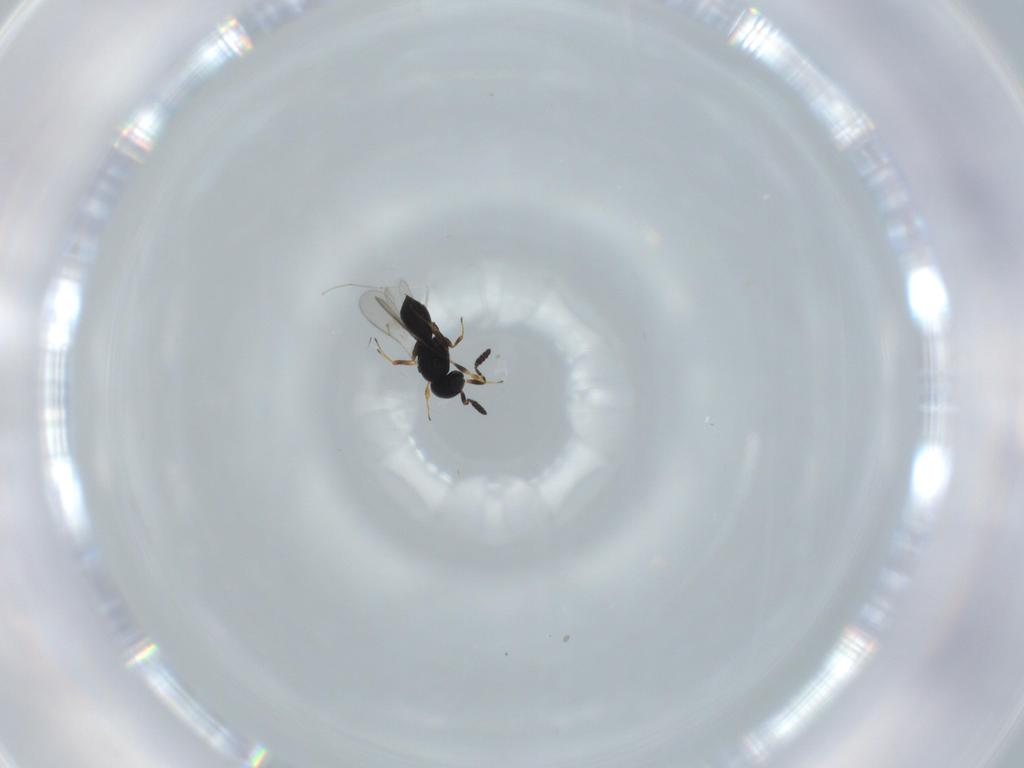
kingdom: Animalia
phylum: Arthropoda
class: Insecta
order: Hymenoptera
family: Scelionidae
